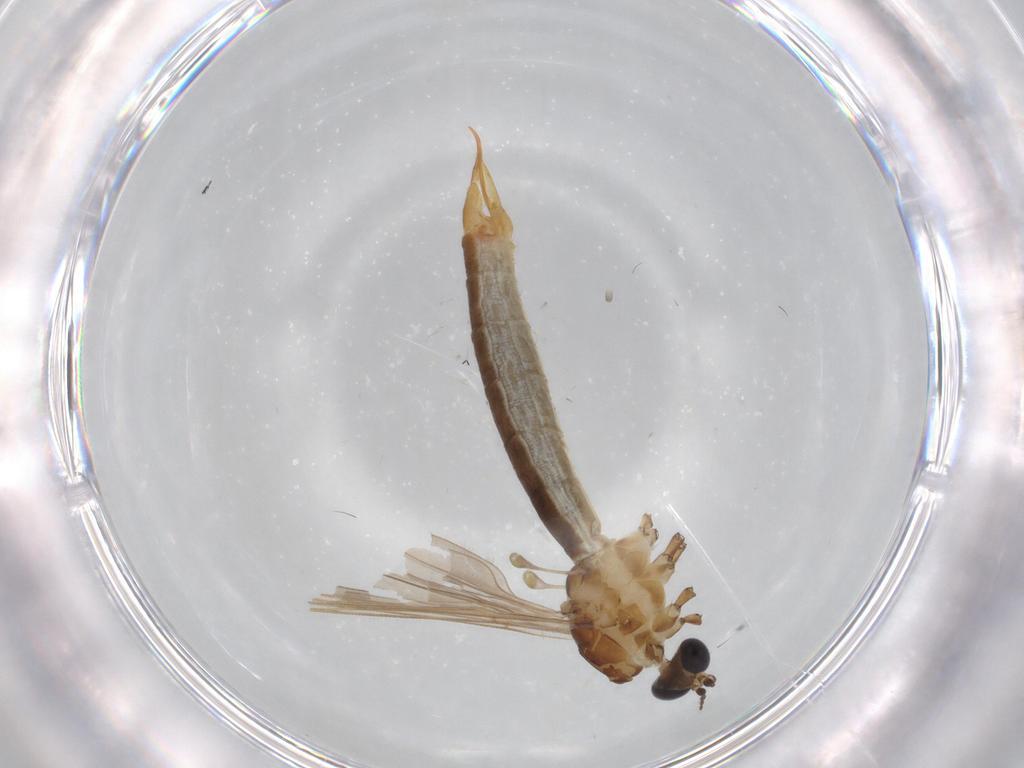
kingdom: Animalia
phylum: Arthropoda
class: Insecta
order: Diptera
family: Ceratopogonidae
